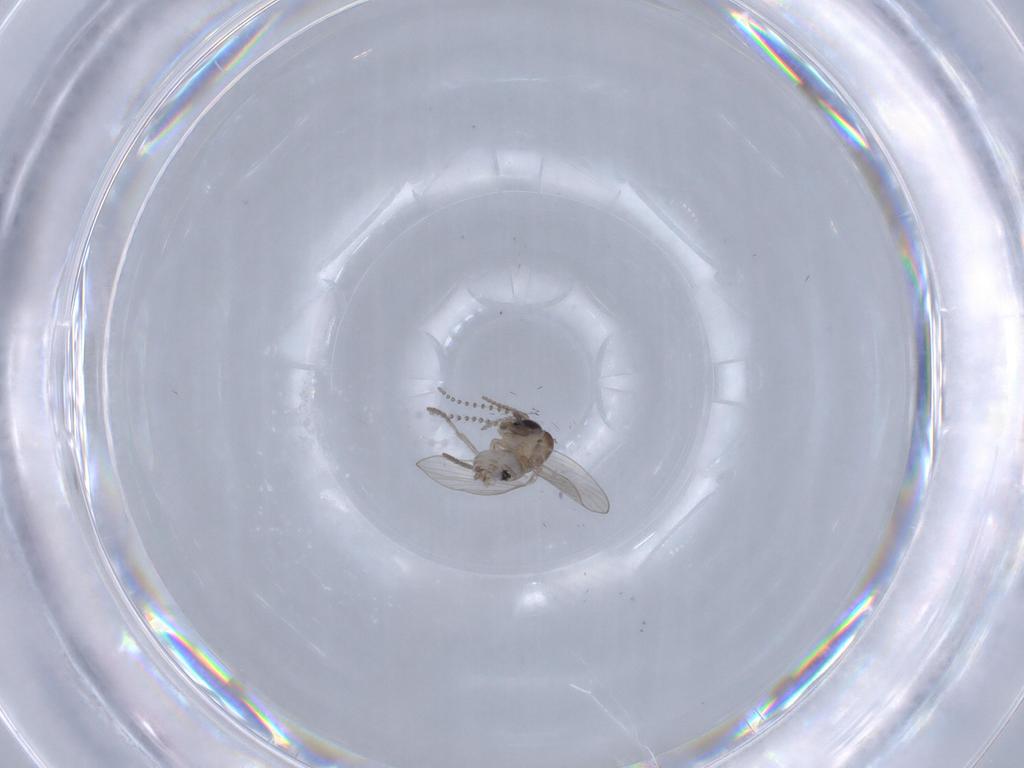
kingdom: Animalia
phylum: Arthropoda
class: Insecta
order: Diptera
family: Psychodidae
